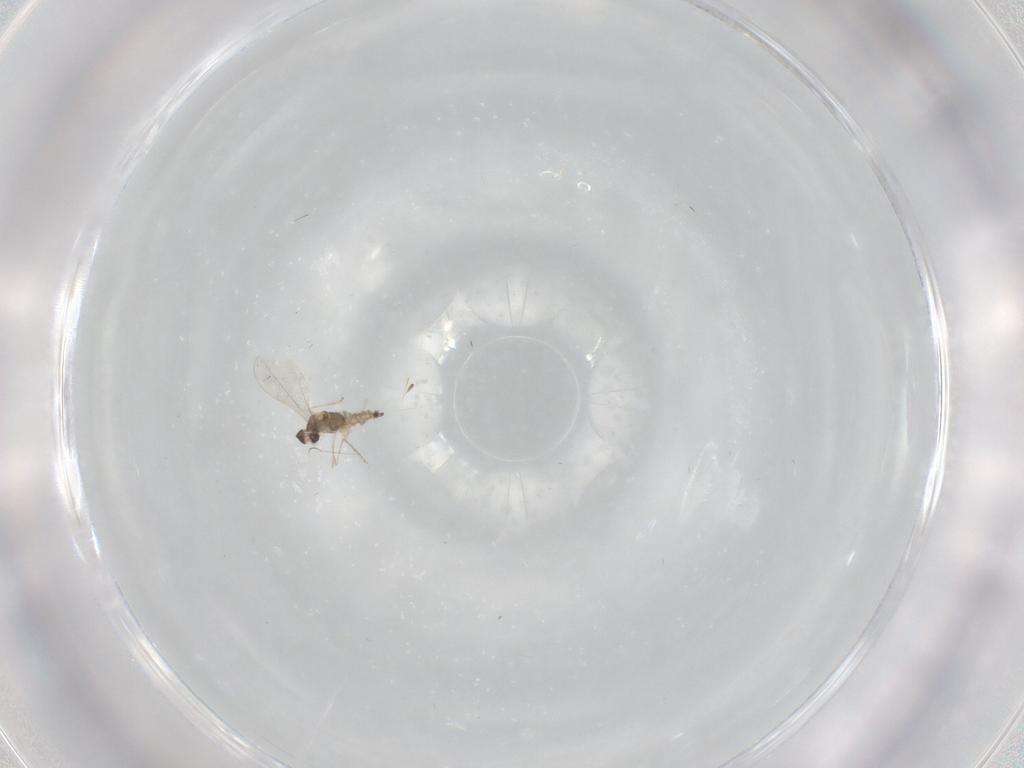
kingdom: Animalia
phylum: Arthropoda
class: Insecta
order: Diptera
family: Cecidomyiidae
